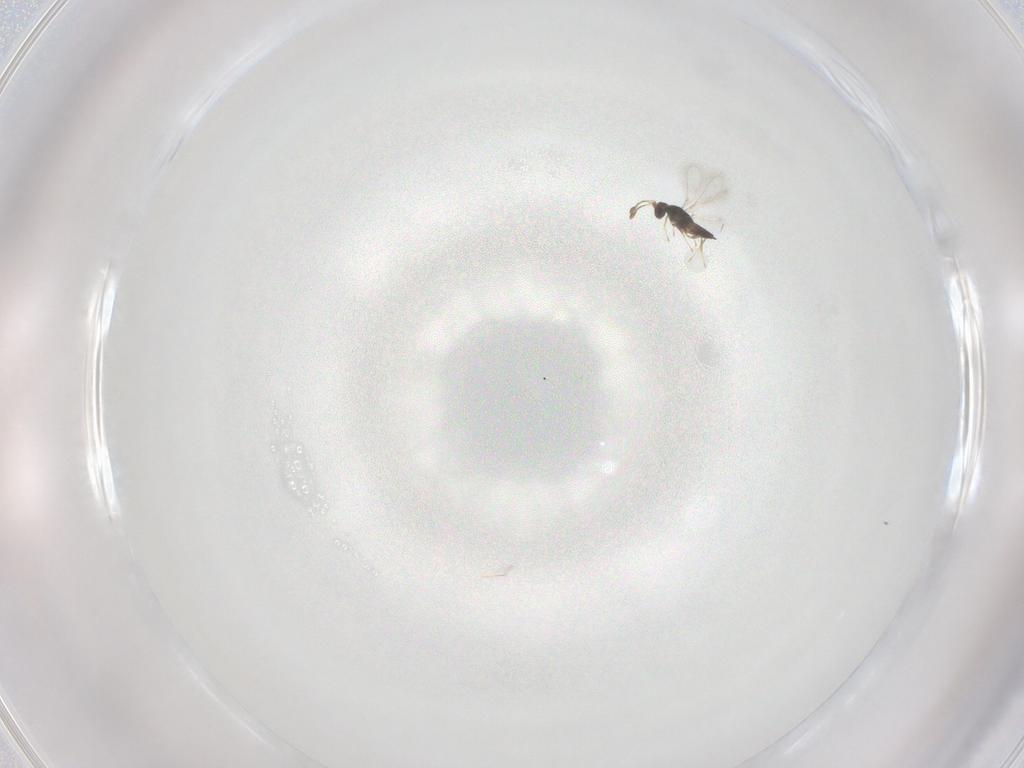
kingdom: Animalia
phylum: Arthropoda
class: Insecta
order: Hymenoptera
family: Mymaridae
